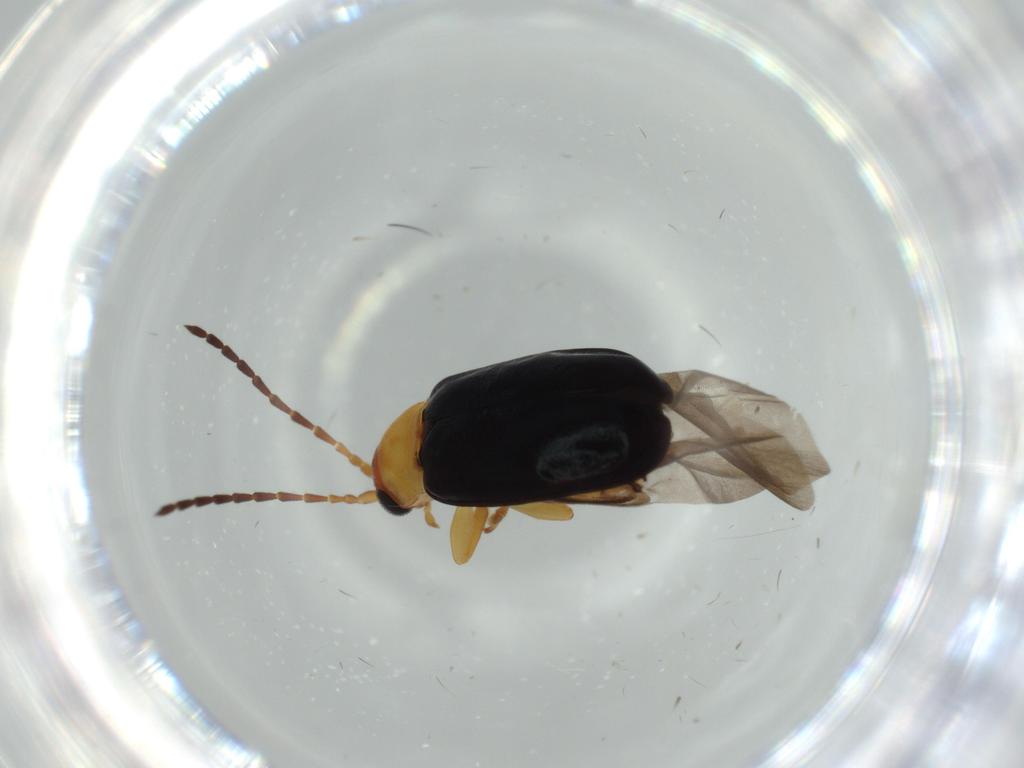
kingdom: Animalia
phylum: Arthropoda
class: Insecta
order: Coleoptera
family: Chrysomelidae
